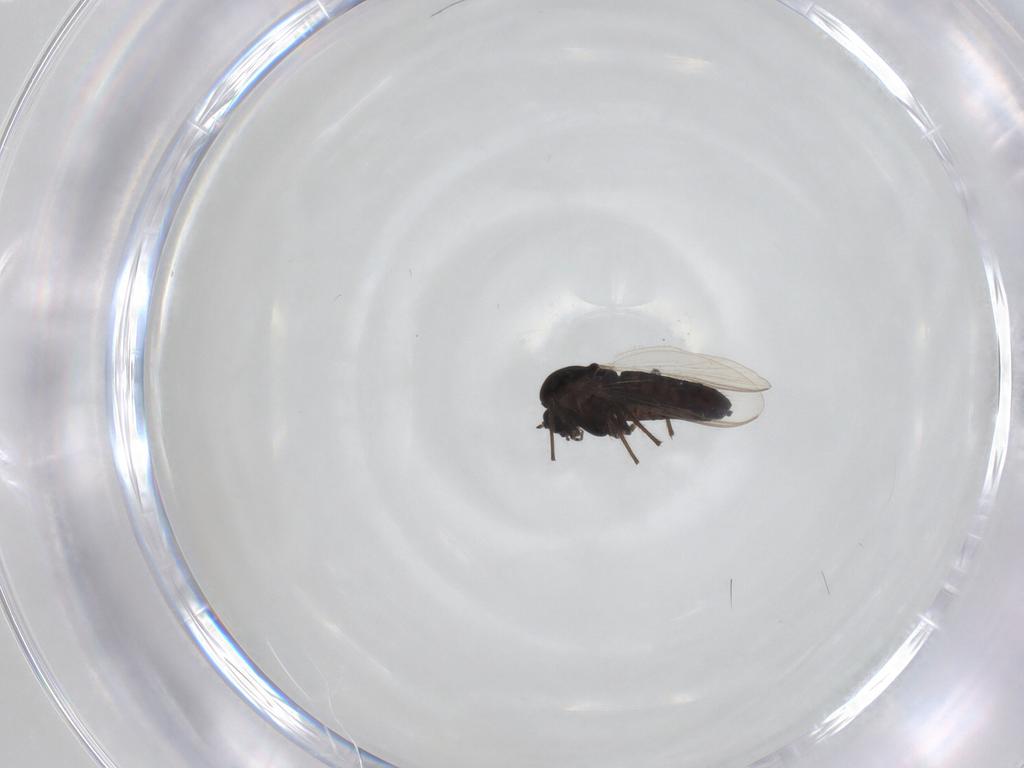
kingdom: Animalia
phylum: Arthropoda
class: Insecta
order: Diptera
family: Chironomidae
